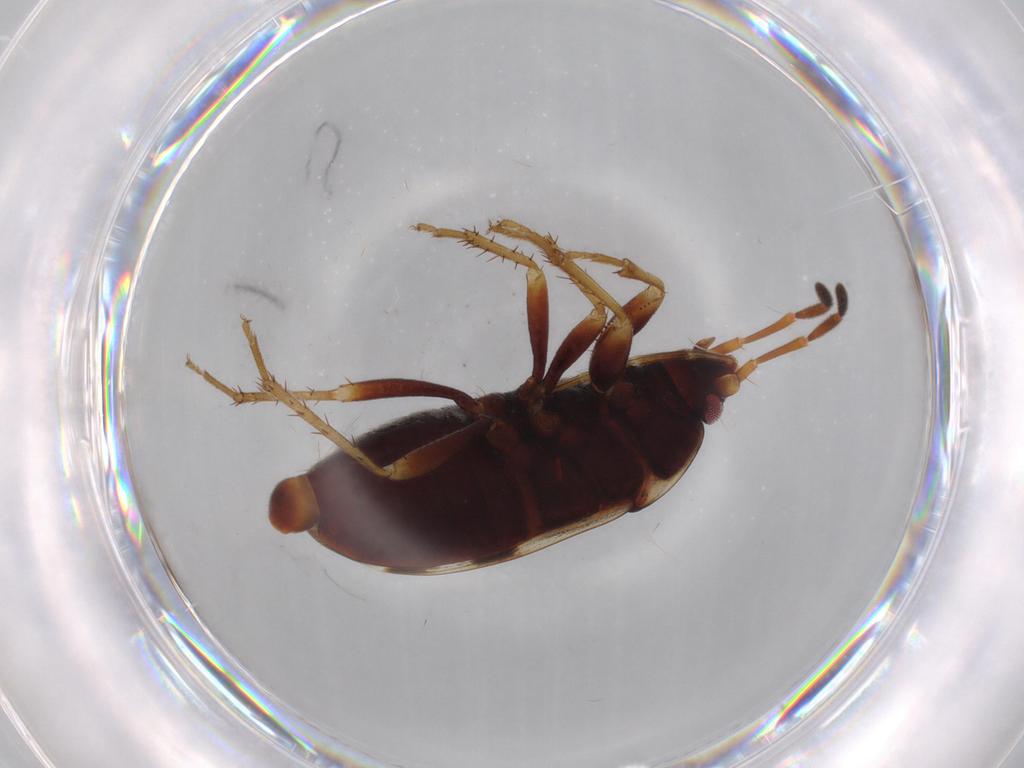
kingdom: Animalia
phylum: Arthropoda
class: Insecta
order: Hemiptera
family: Rhyparochromidae
